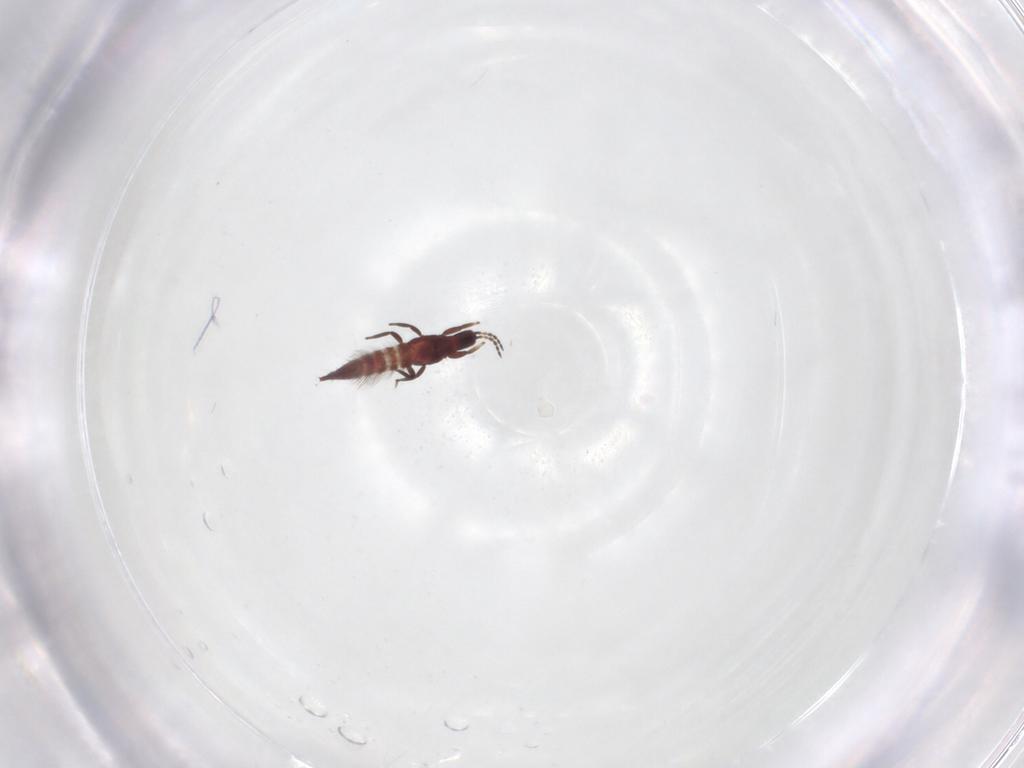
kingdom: Animalia
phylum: Arthropoda
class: Insecta
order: Thysanoptera
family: Phlaeothripidae
